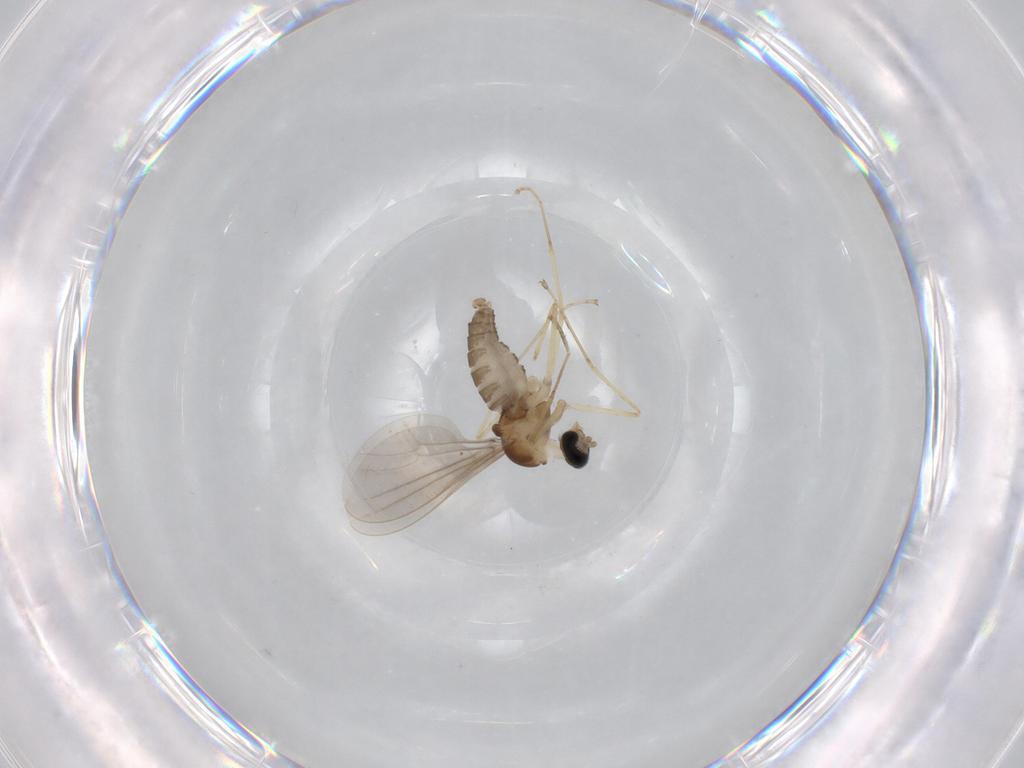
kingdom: Animalia
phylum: Arthropoda
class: Insecta
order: Diptera
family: Cecidomyiidae
